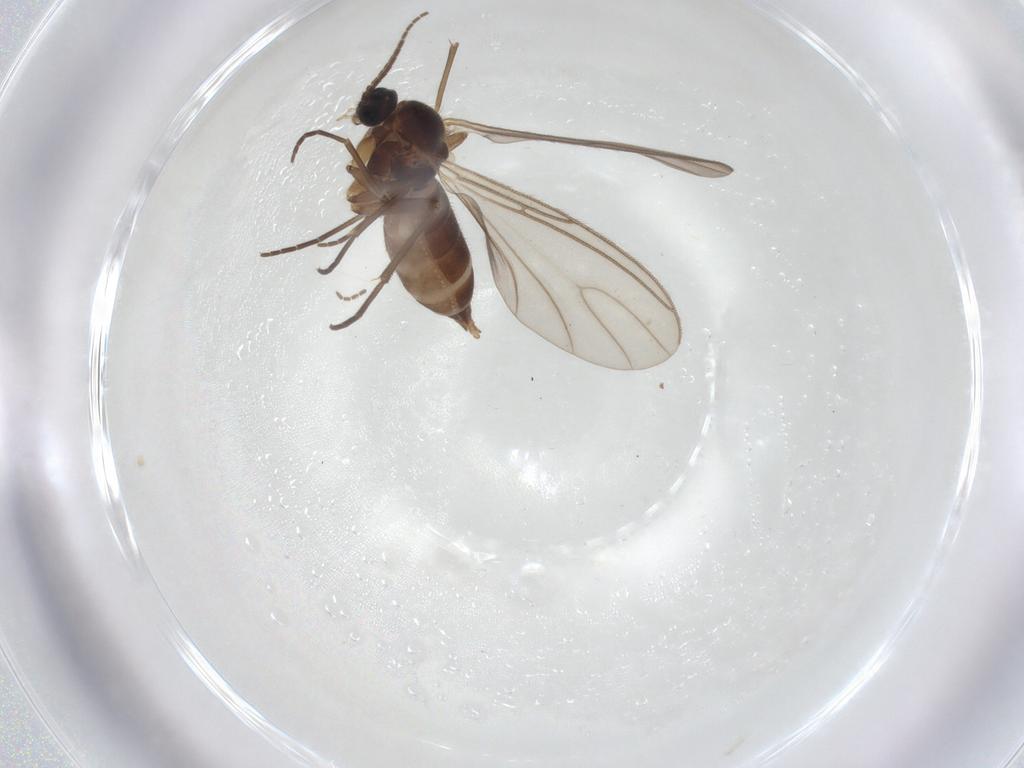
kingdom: Animalia
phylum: Arthropoda
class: Insecta
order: Diptera
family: Sciaridae
